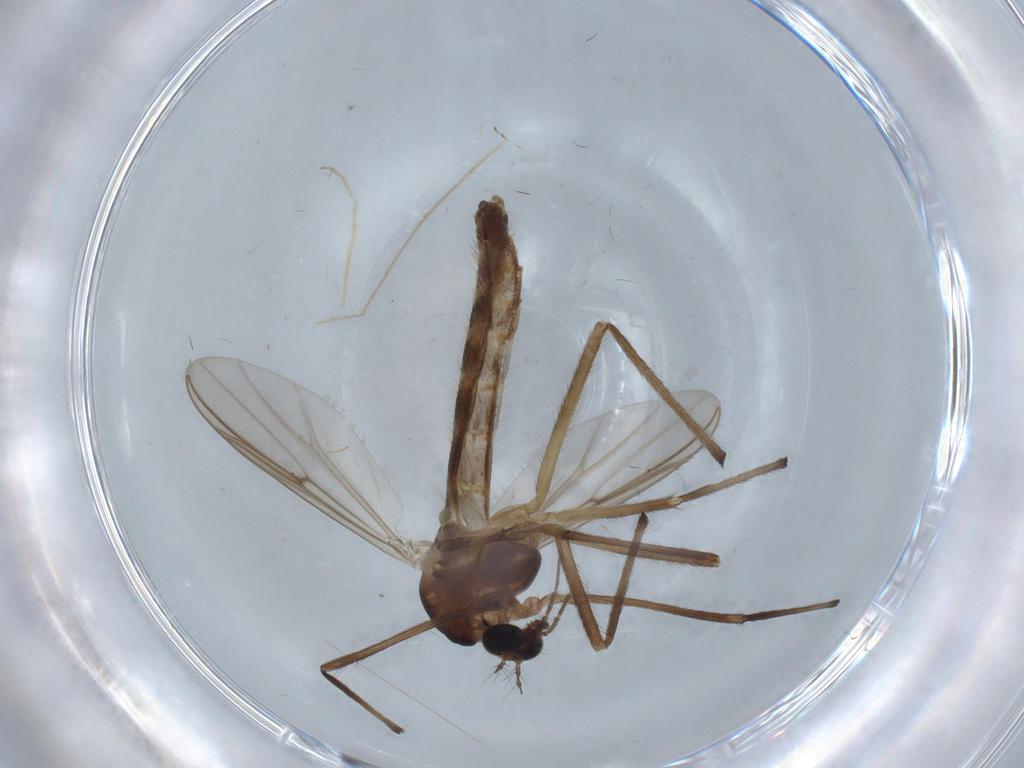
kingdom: Animalia
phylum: Arthropoda
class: Insecta
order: Diptera
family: Chironomidae
